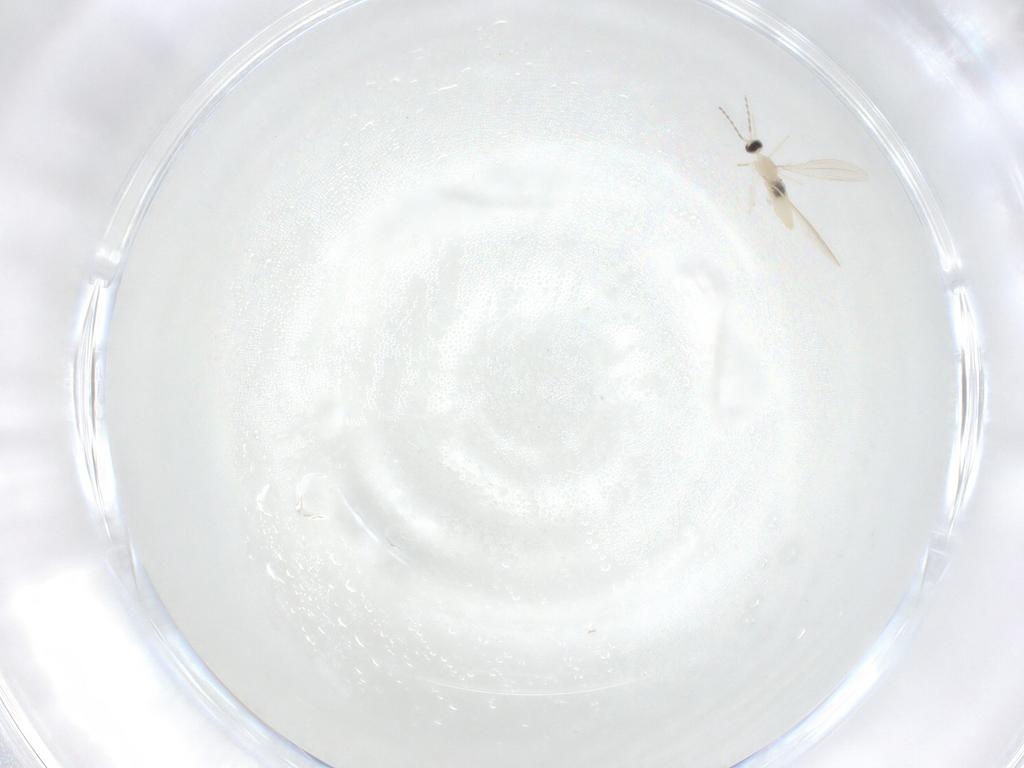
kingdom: Animalia
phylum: Arthropoda
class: Insecta
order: Diptera
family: Cecidomyiidae
